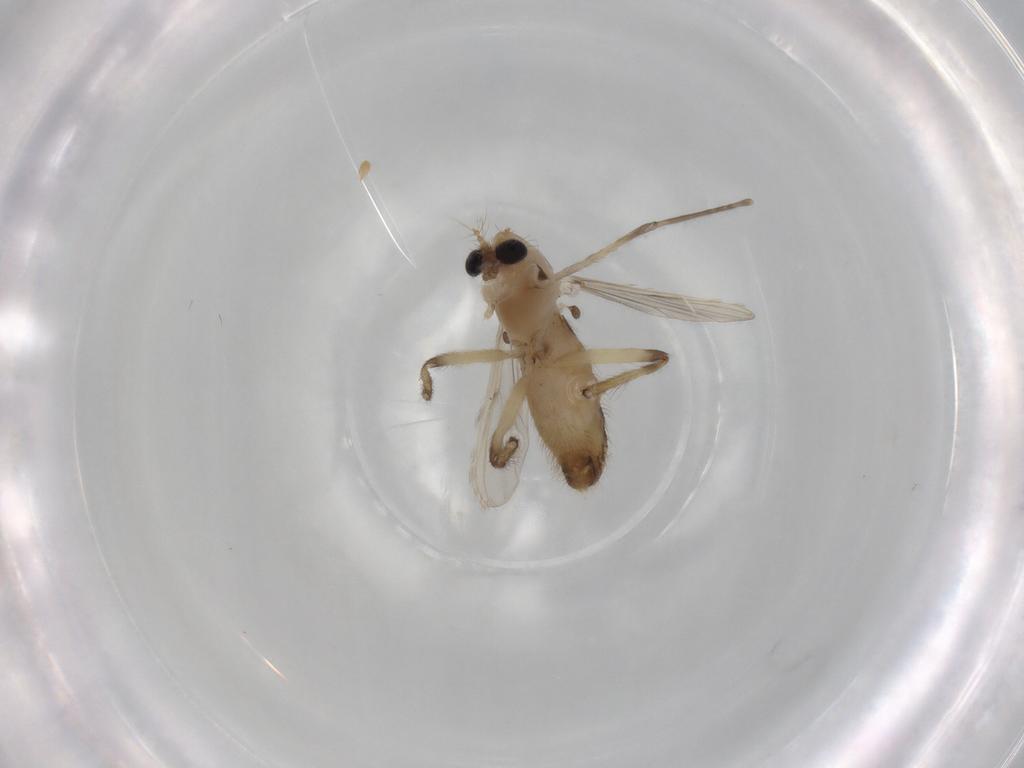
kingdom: Animalia
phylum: Arthropoda
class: Insecta
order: Diptera
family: Chironomidae
